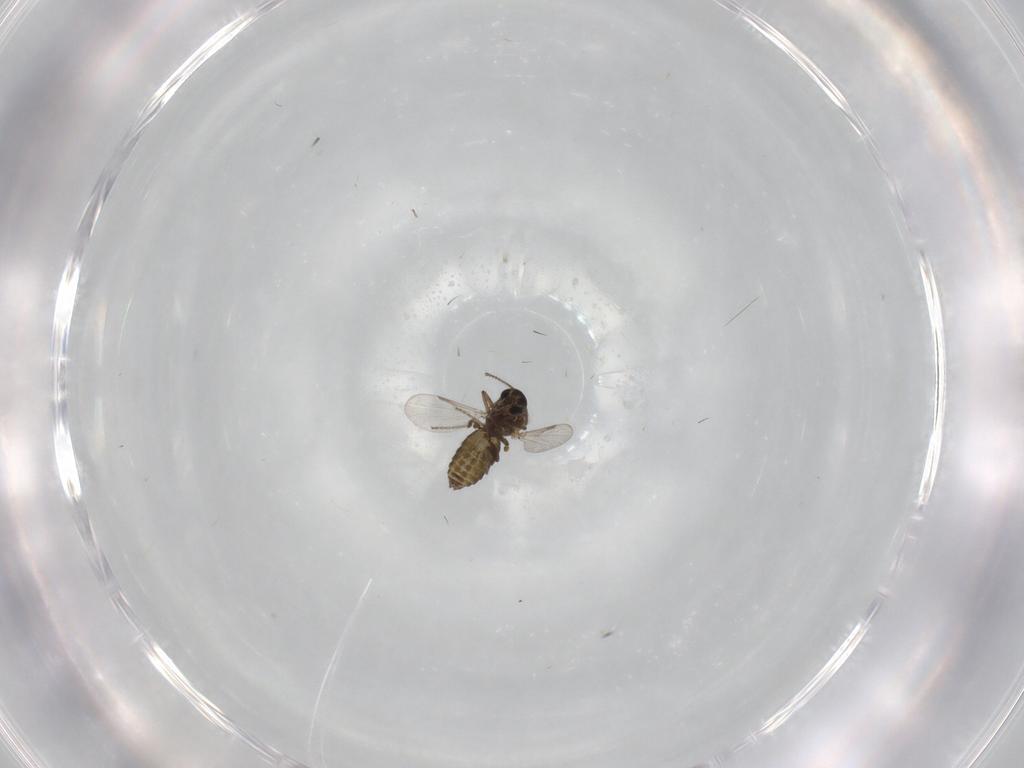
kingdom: Animalia
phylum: Arthropoda
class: Insecta
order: Diptera
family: Ceratopogonidae
